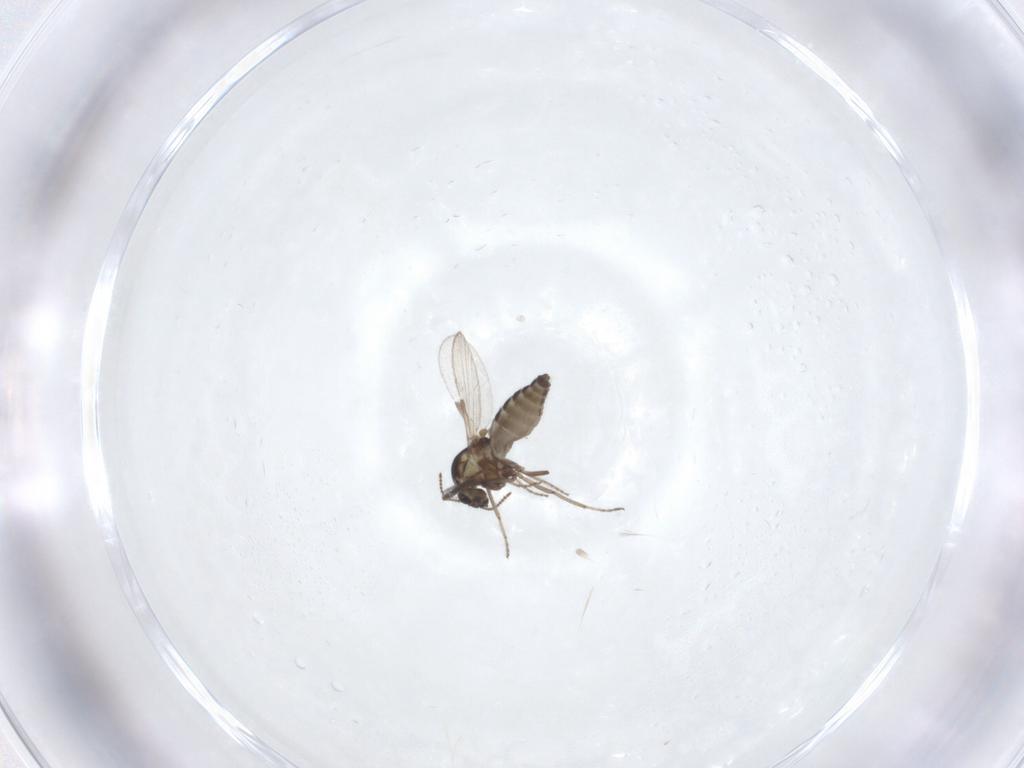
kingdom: Animalia
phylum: Arthropoda
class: Insecta
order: Diptera
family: Ceratopogonidae
